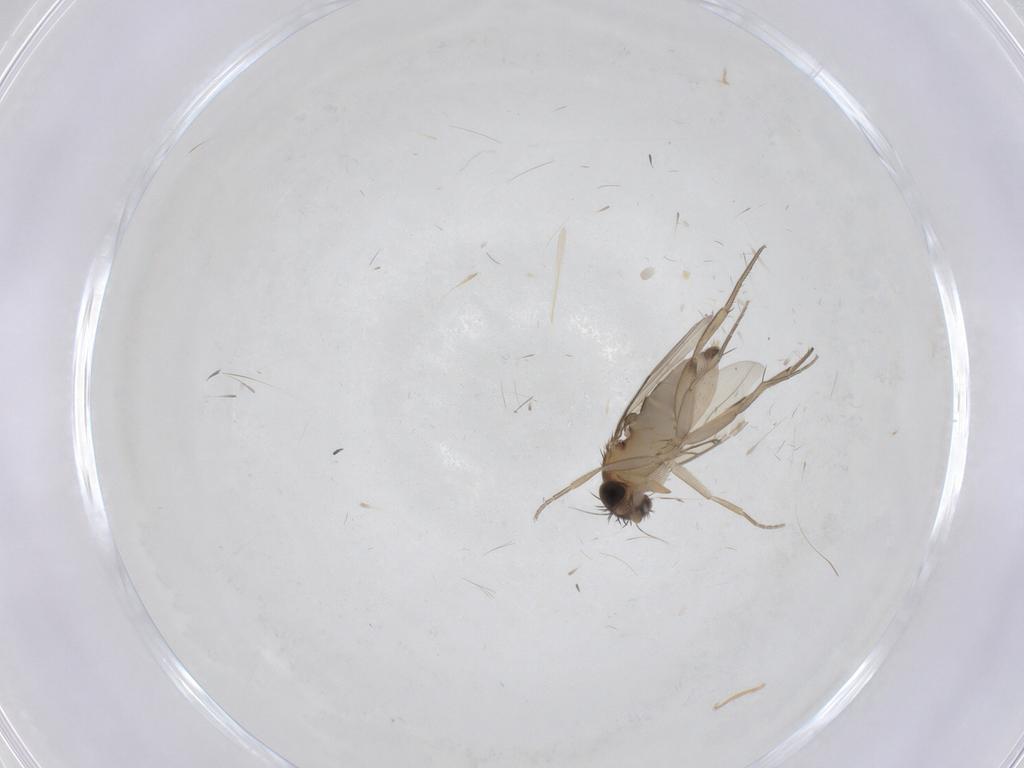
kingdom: Animalia
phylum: Arthropoda
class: Insecta
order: Diptera
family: Phoridae
